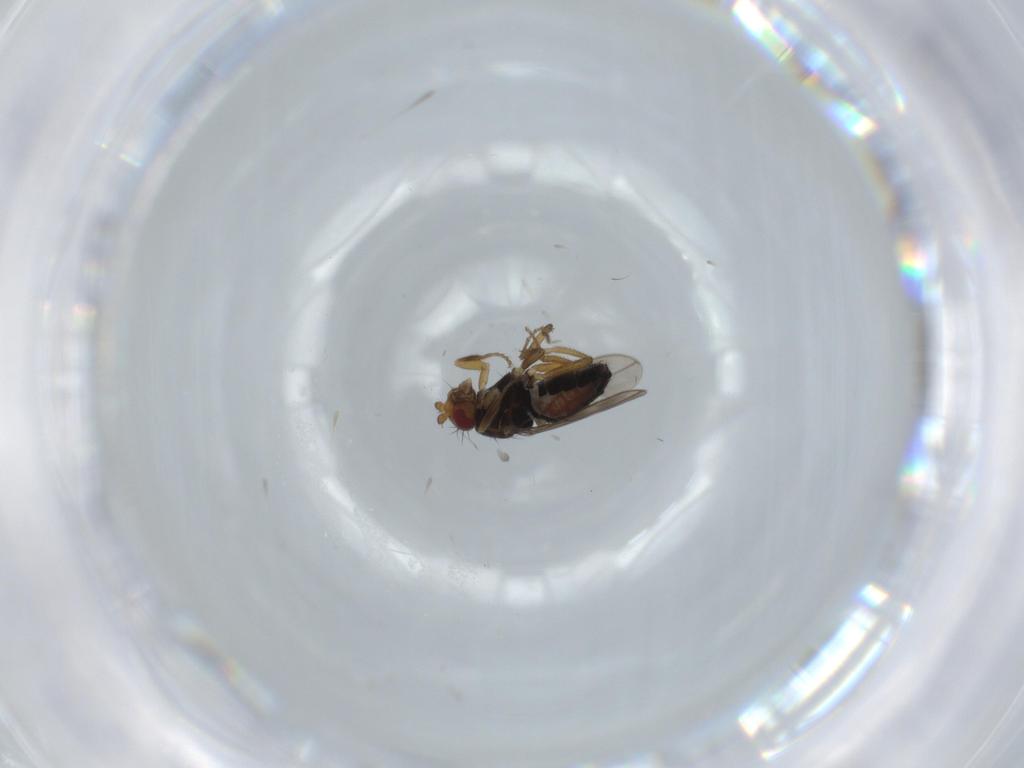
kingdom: Animalia
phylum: Arthropoda
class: Insecta
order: Diptera
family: Sphaeroceridae
